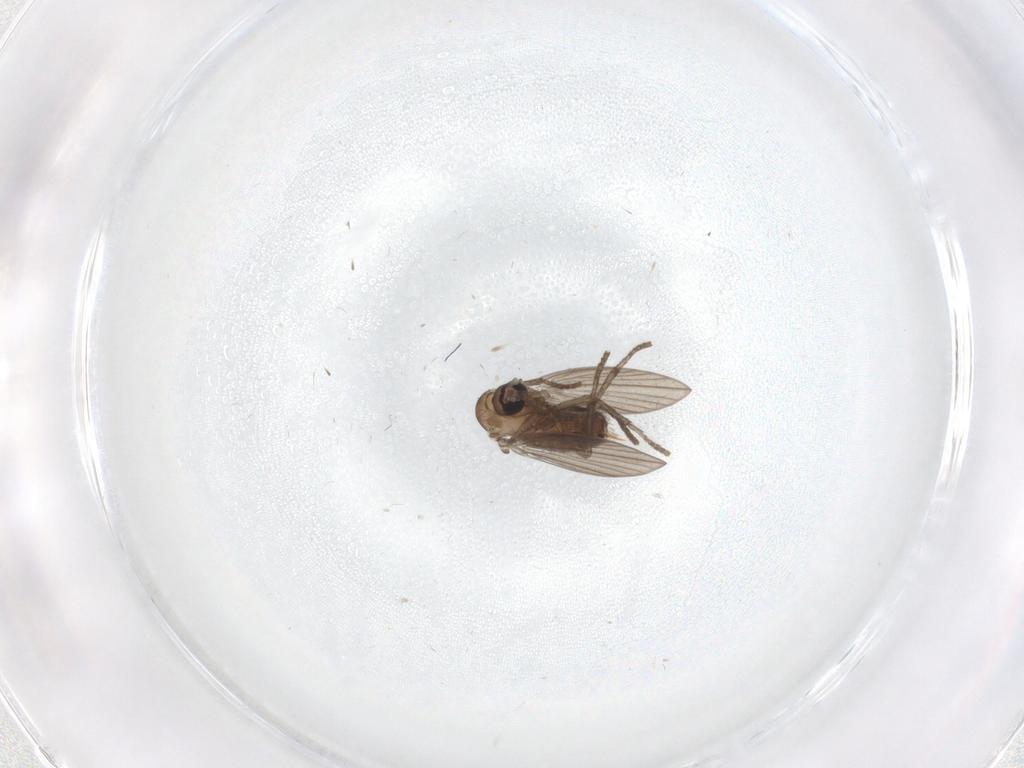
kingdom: Animalia
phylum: Arthropoda
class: Insecta
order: Diptera
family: Psychodidae
